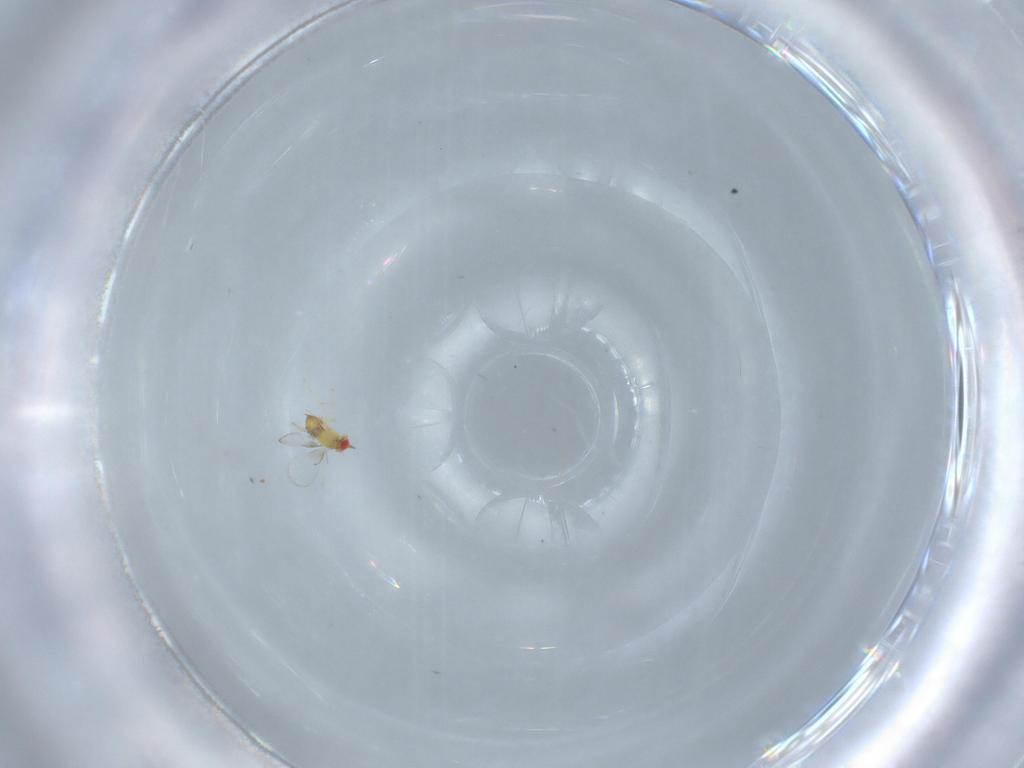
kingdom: Animalia
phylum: Arthropoda
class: Insecta
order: Hymenoptera
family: Trichogrammatidae
